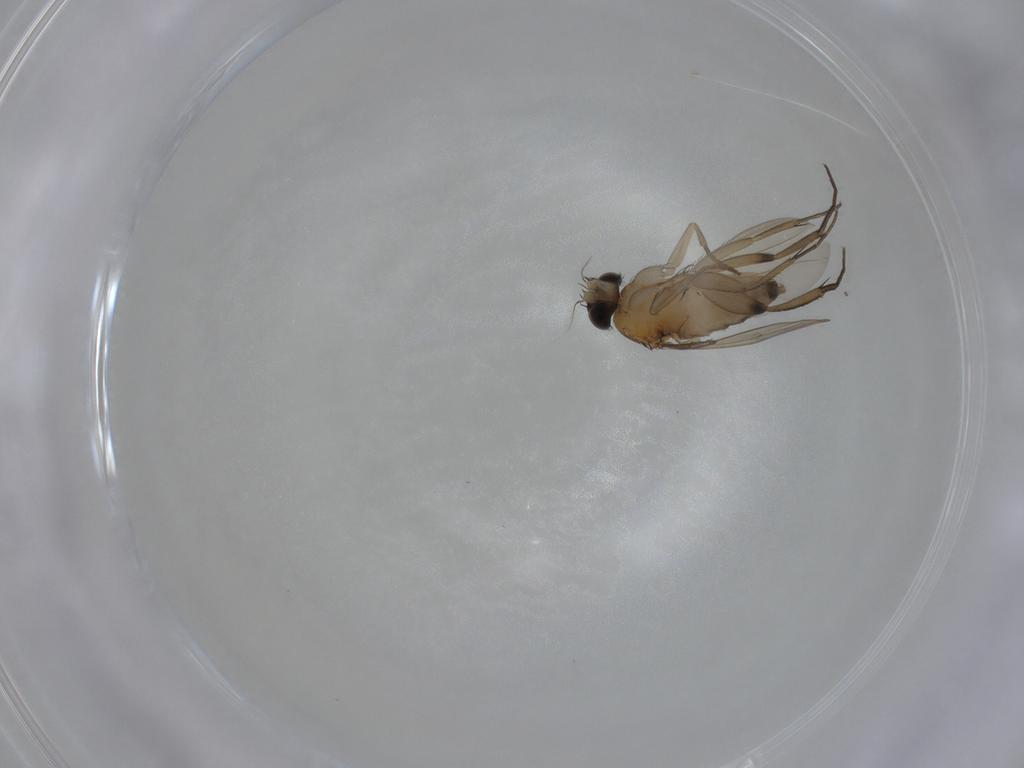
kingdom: Animalia
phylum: Arthropoda
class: Insecta
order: Diptera
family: Phoridae
